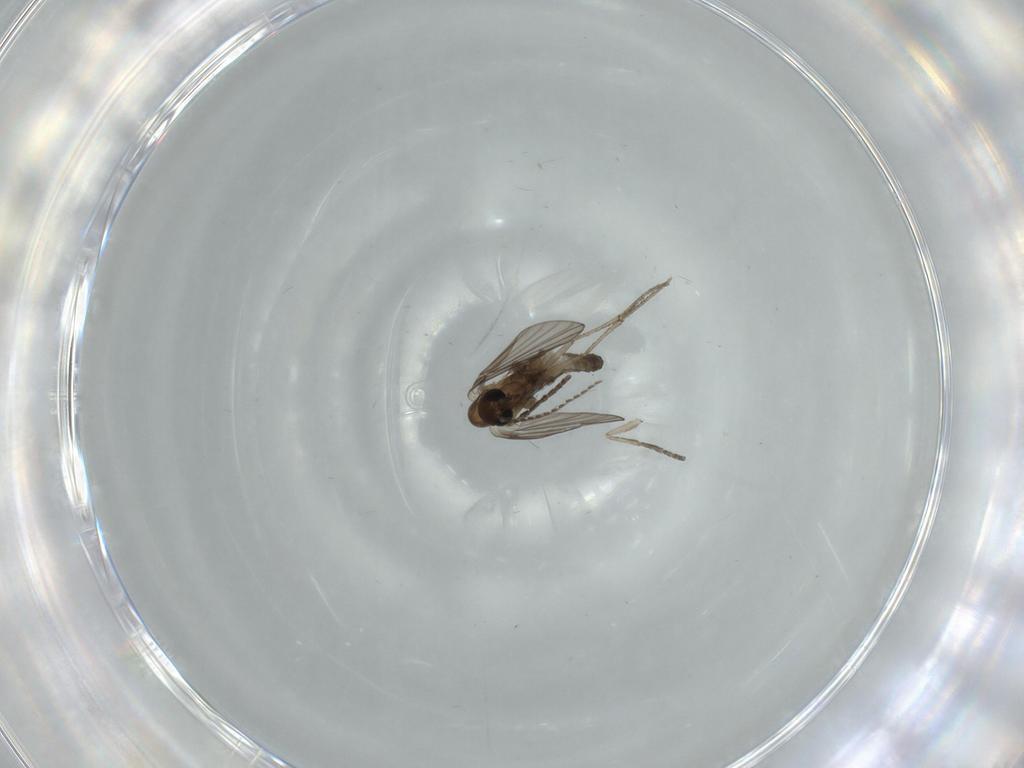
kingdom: Animalia
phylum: Arthropoda
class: Insecta
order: Diptera
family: Psychodidae
